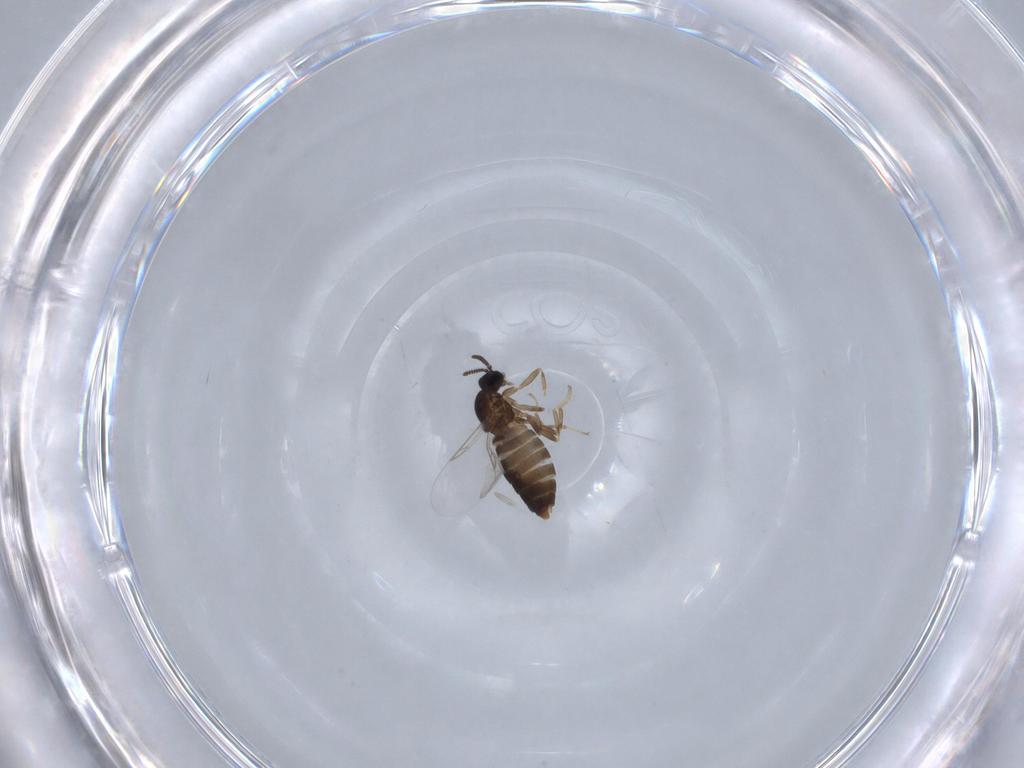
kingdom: Animalia
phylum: Arthropoda
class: Insecta
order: Diptera
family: Scatopsidae
